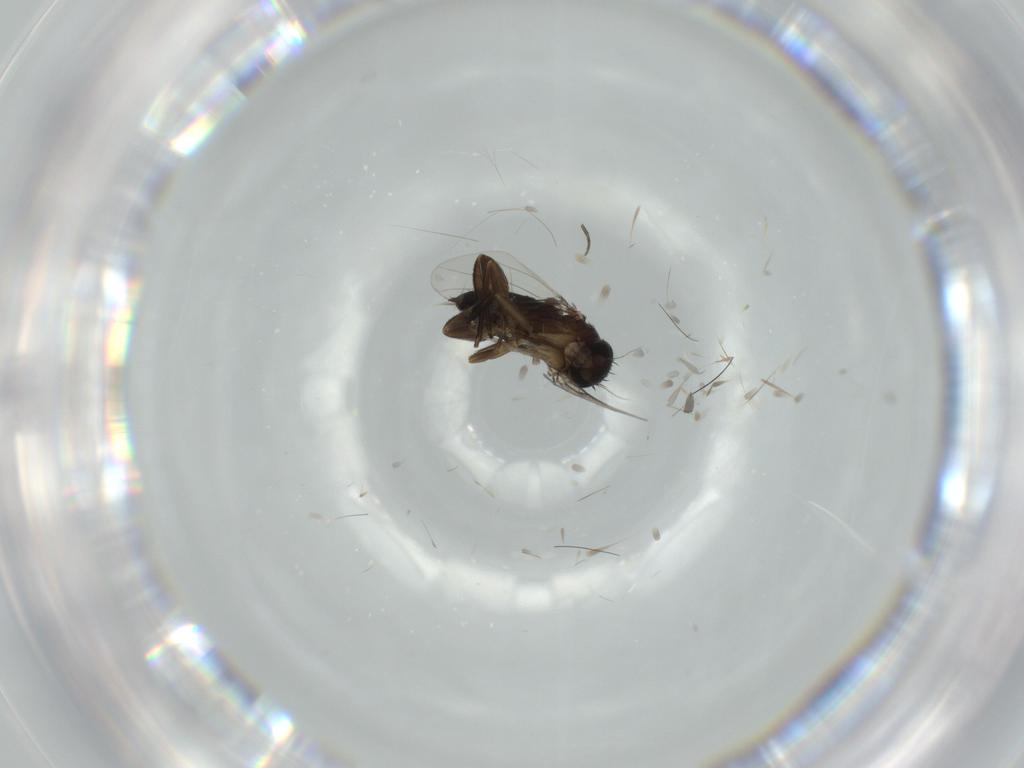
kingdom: Animalia
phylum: Arthropoda
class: Insecta
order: Diptera
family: Phoridae
